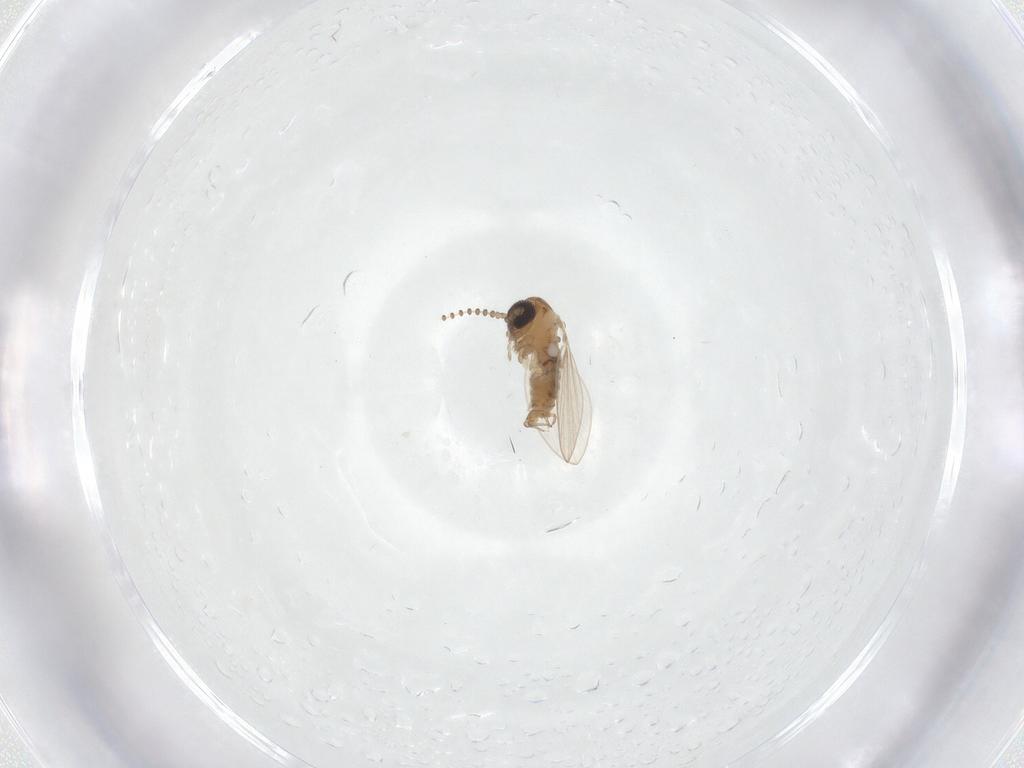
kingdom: Animalia
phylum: Arthropoda
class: Insecta
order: Diptera
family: Psychodidae
